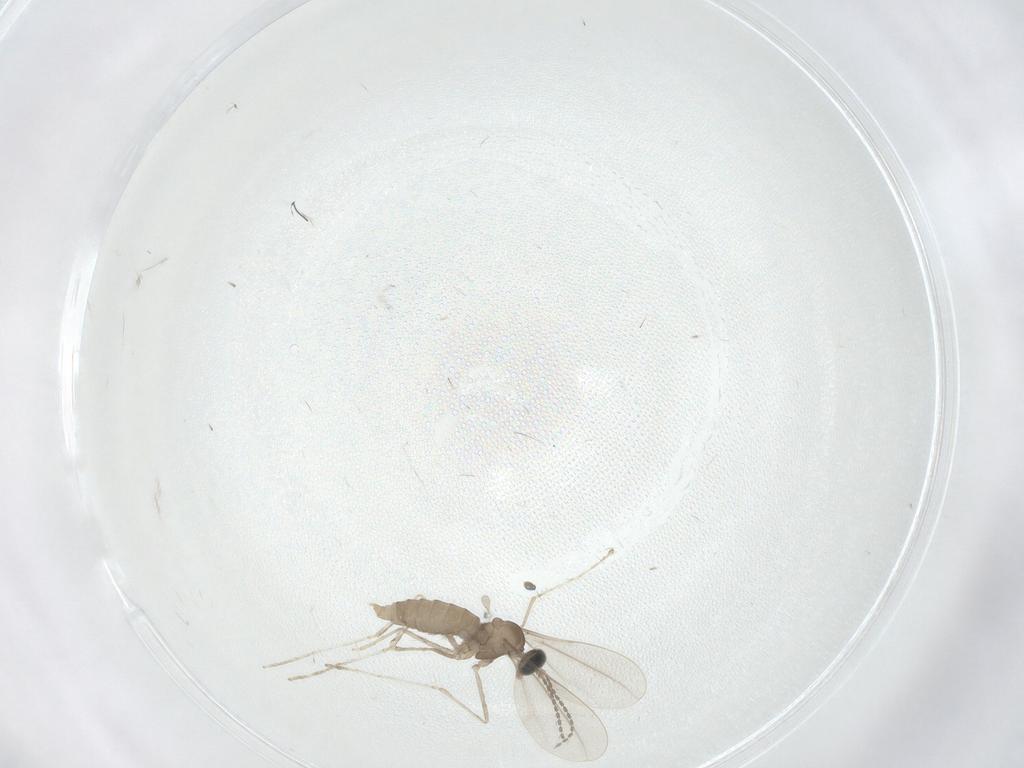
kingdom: Animalia
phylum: Arthropoda
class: Insecta
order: Diptera
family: Cecidomyiidae
